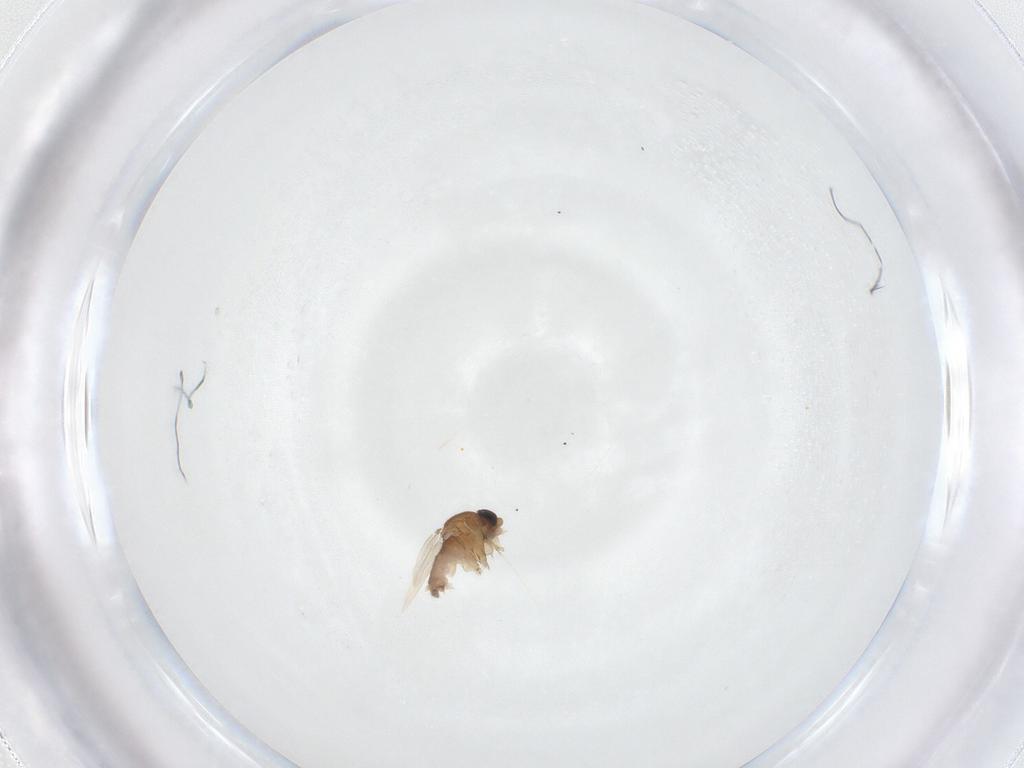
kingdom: Animalia
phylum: Arthropoda
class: Insecta
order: Diptera
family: Phoridae
